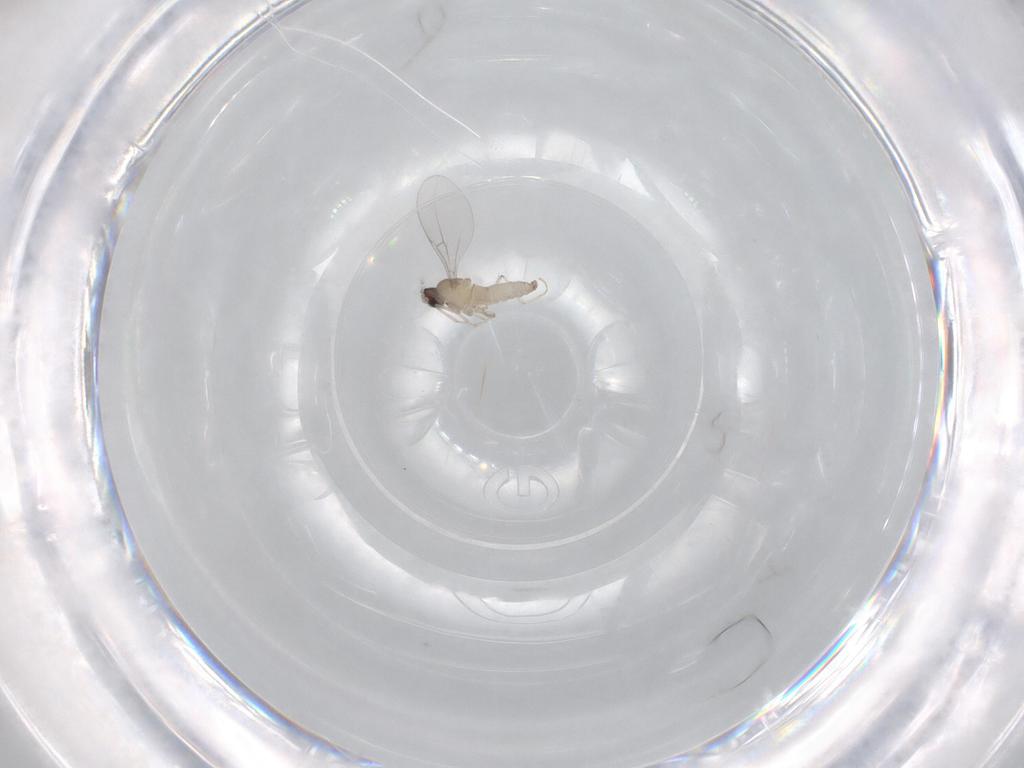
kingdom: Animalia
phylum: Arthropoda
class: Insecta
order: Diptera
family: Cecidomyiidae
